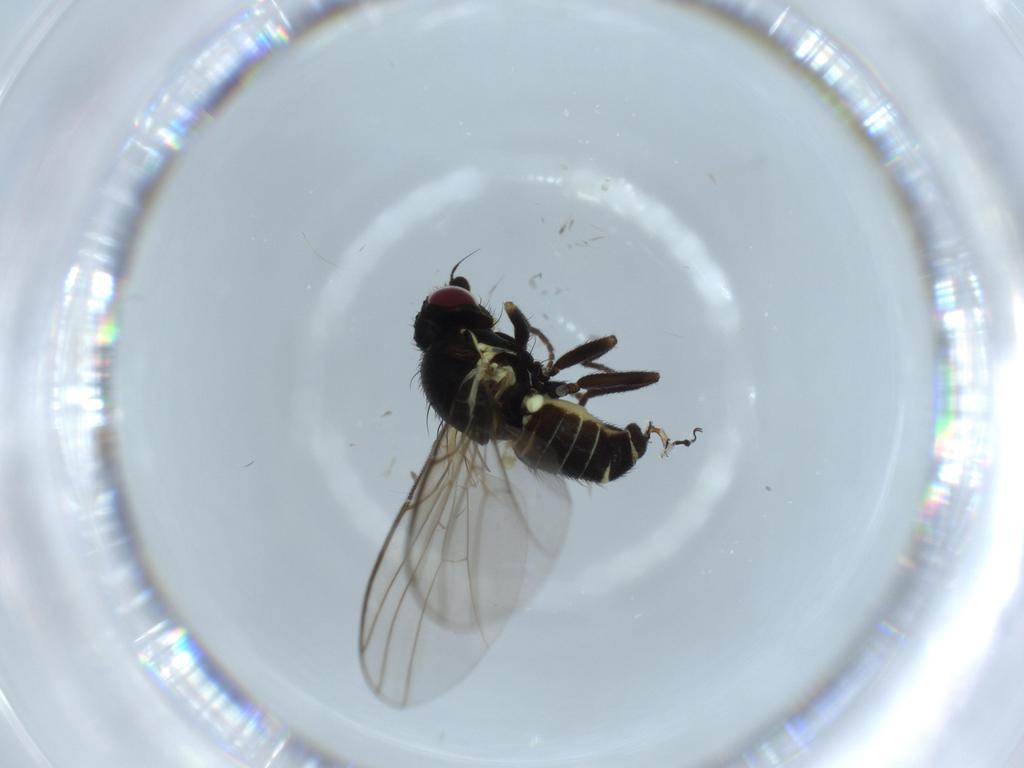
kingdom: Animalia
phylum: Arthropoda
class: Insecta
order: Diptera
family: Agromyzidae
